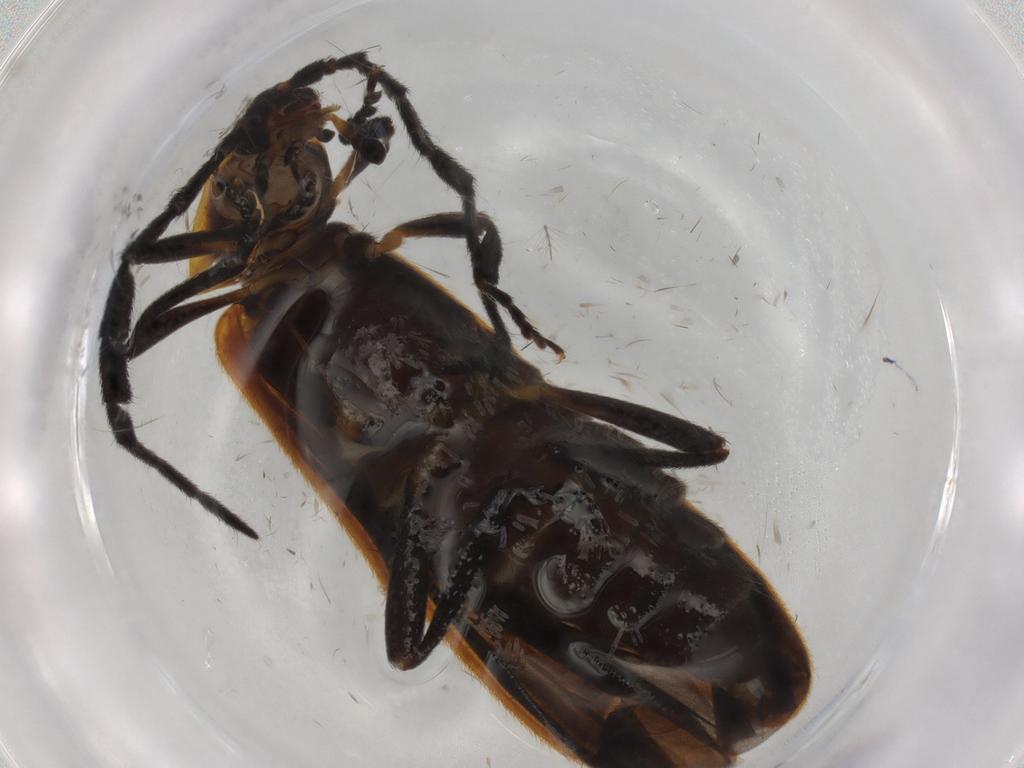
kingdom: Animalia
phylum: Arthropoda
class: Insecta
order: Coleoptera
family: Lycidae
